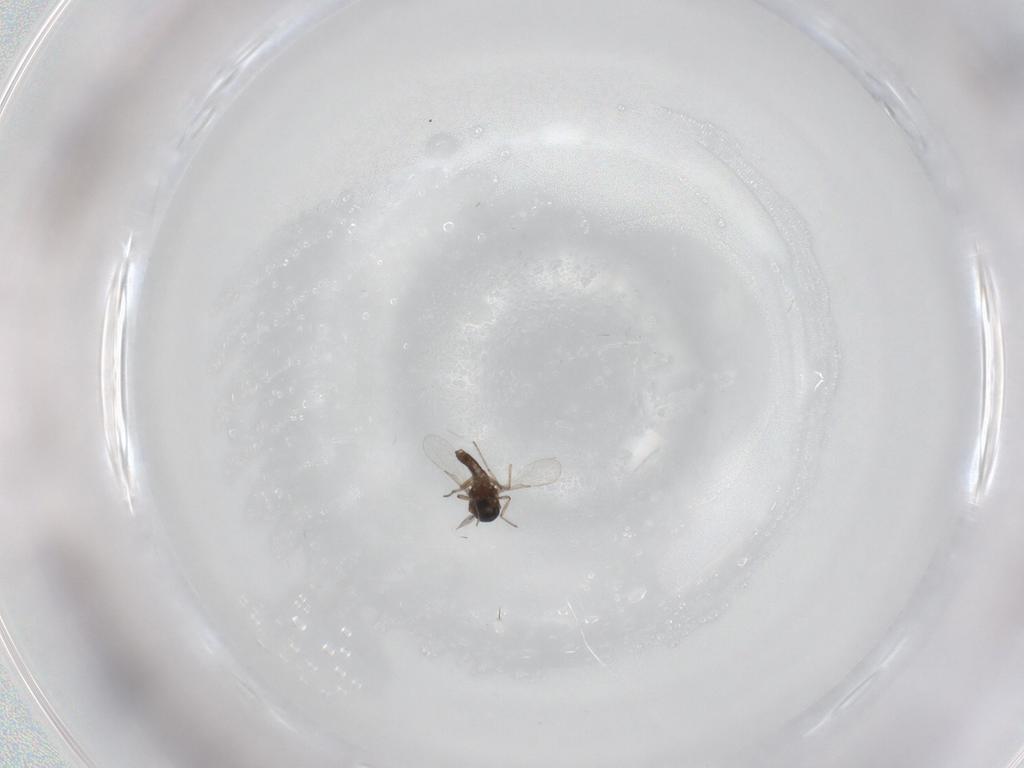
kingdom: Animalia
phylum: Arthropoda
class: Insecta
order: Diptera
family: Ceratopogonidae
